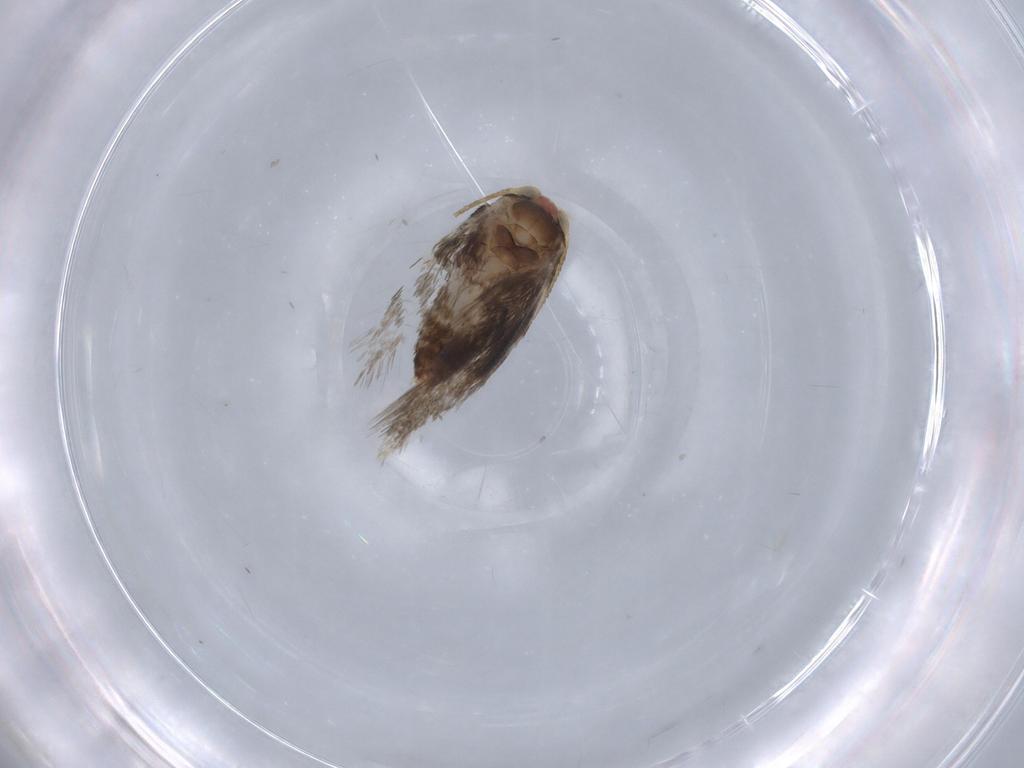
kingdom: Animalia
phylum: Arthropoda
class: Insecta
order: Lepidoptera
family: Nepticulidae
